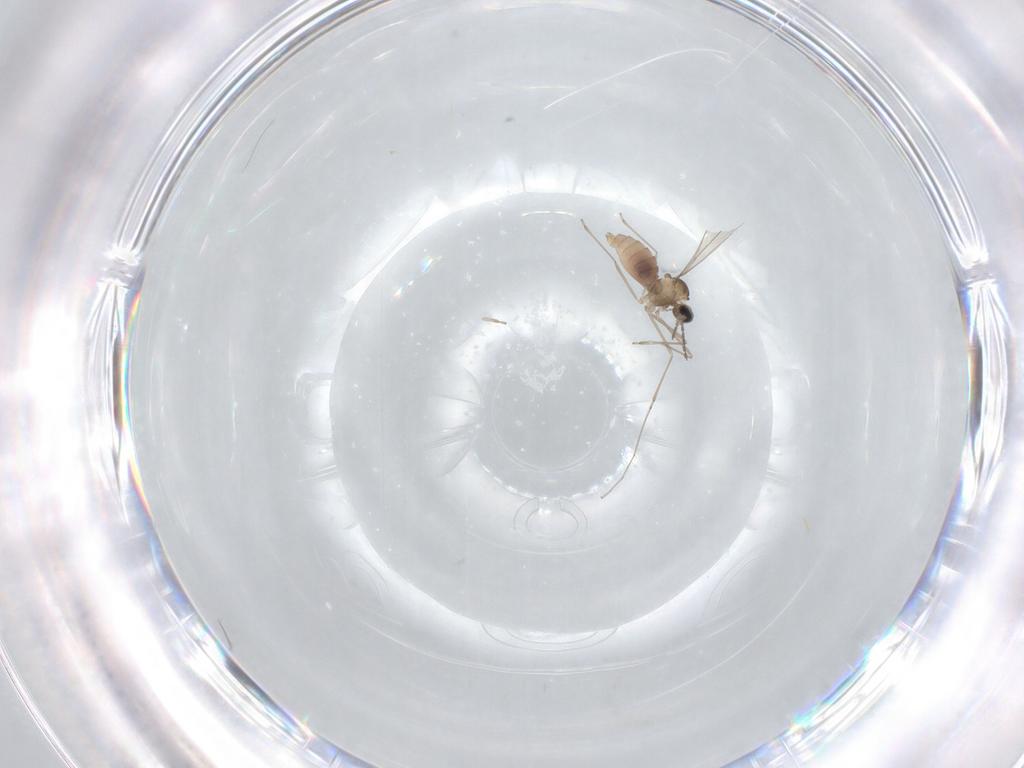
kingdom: Animalia
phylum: Arthropoda
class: Insecta
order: Diptera
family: Cecidomyiidae
